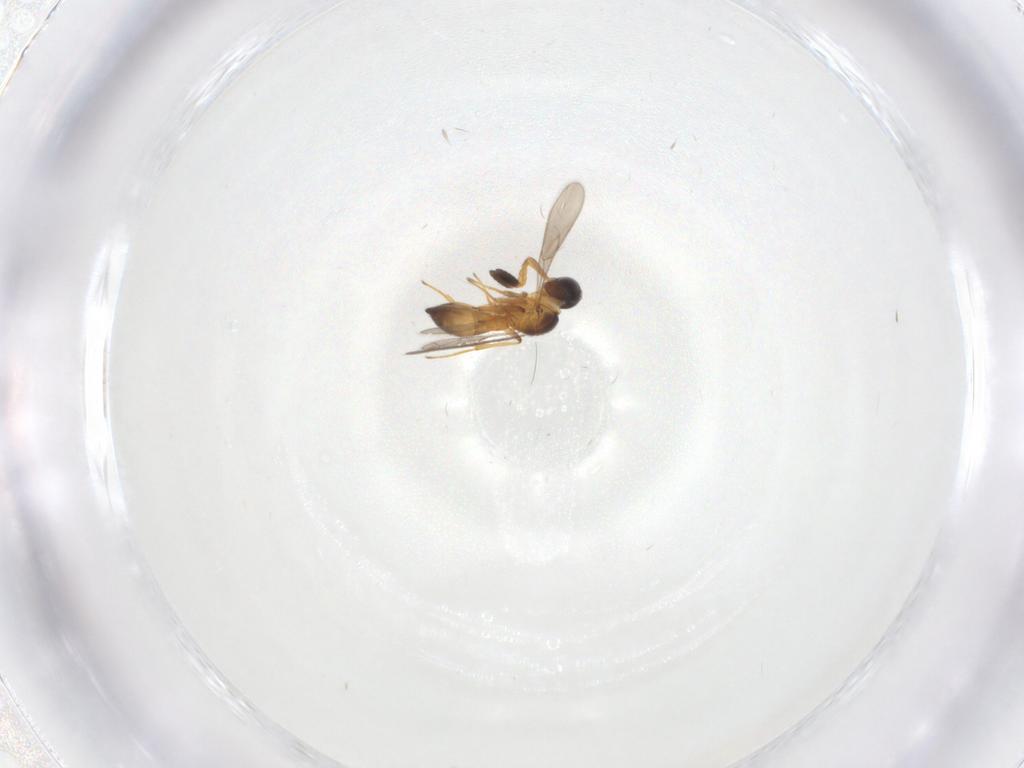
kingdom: Animalia
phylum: Arthropoda
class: Insecta
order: Hymenoptera
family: Scelionidae
